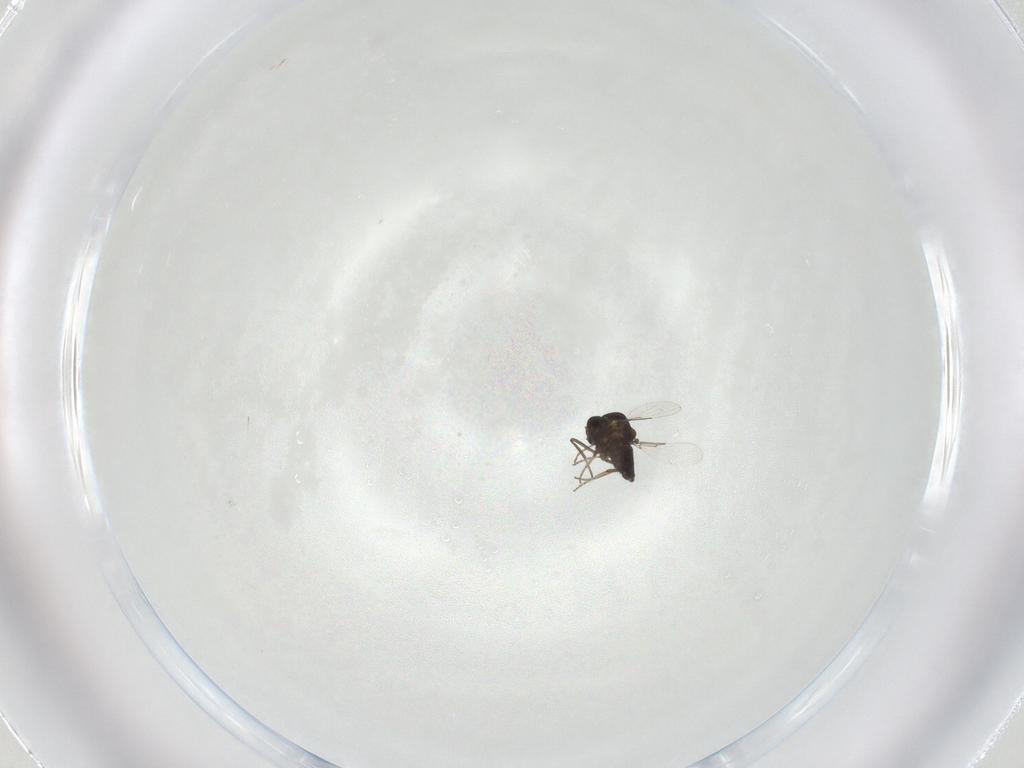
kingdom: Animalia
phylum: Arthropoda
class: Insecta
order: Diptera
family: Ceratopogonidae
